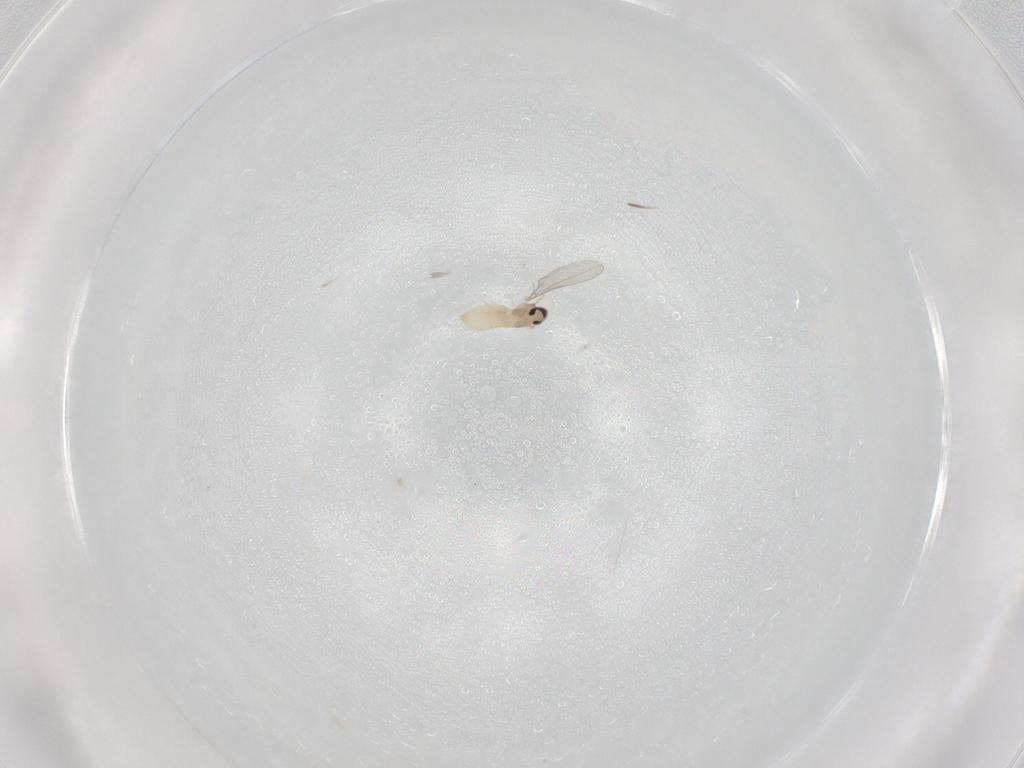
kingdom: Animalia
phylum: Arthropoda
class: Insecta
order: Diptera
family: Cecidomyiidae
